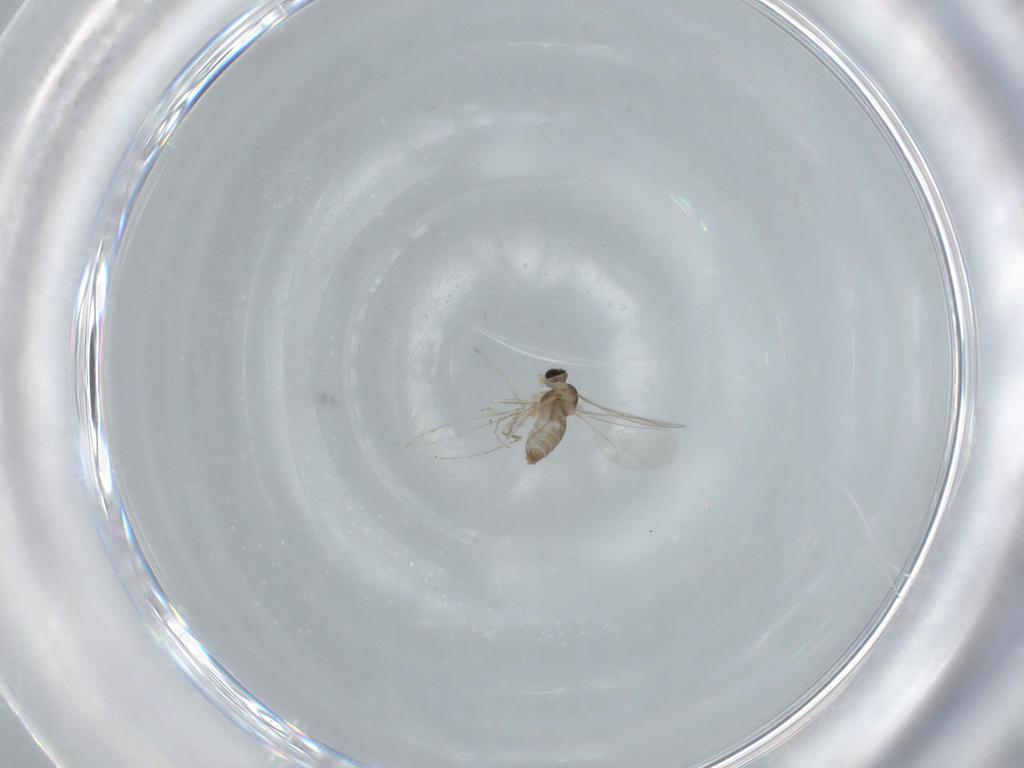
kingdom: Animalia
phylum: Arthropoda
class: Insecta
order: Diptera
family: Cecidomyiidae
